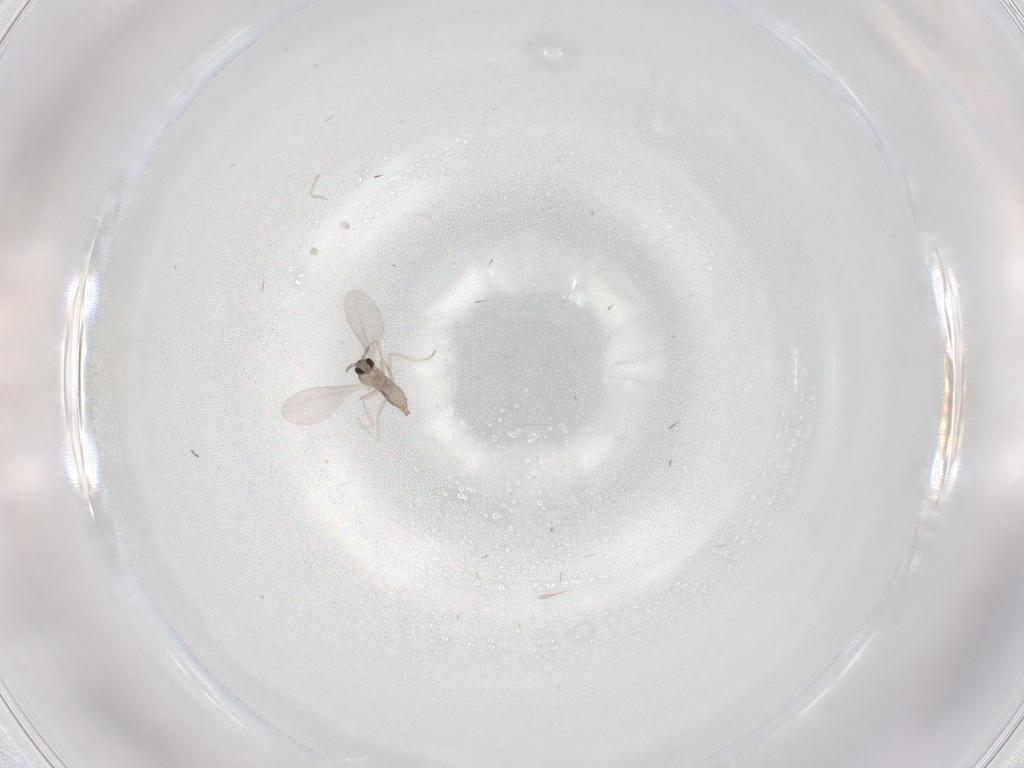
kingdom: Animalia
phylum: Arthropoda
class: Insecta
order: Diptera
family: Cecidomyiidae
